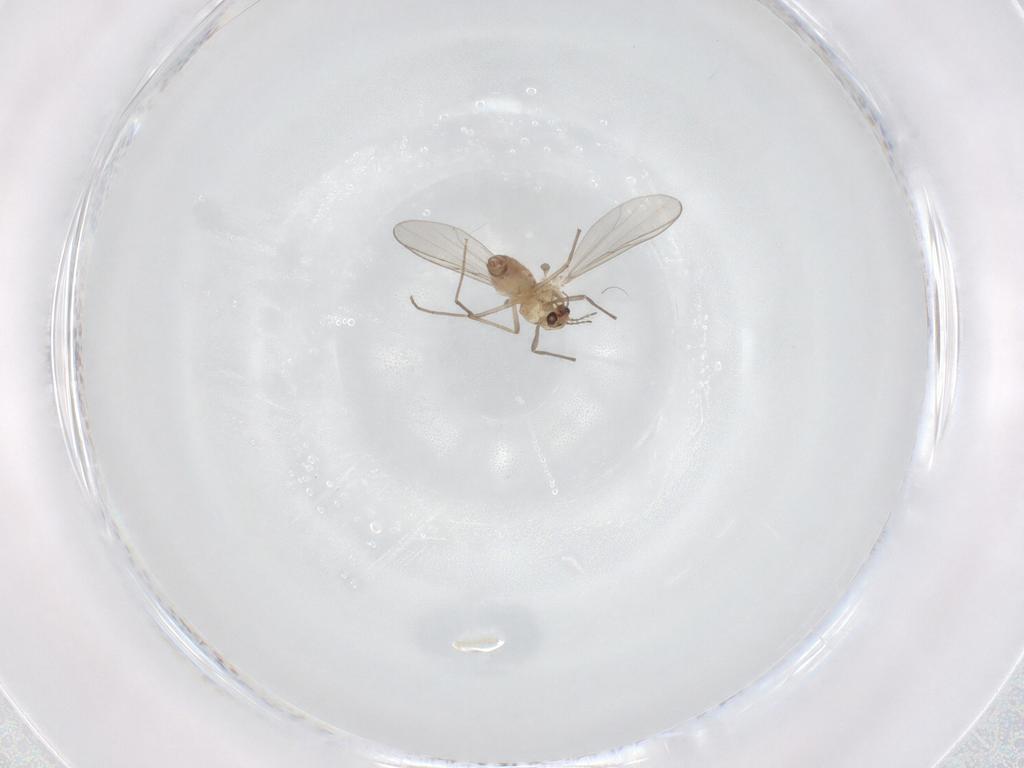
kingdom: Animalia
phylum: Arthropoda
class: Insecta
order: Diptera
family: Chironomidae
